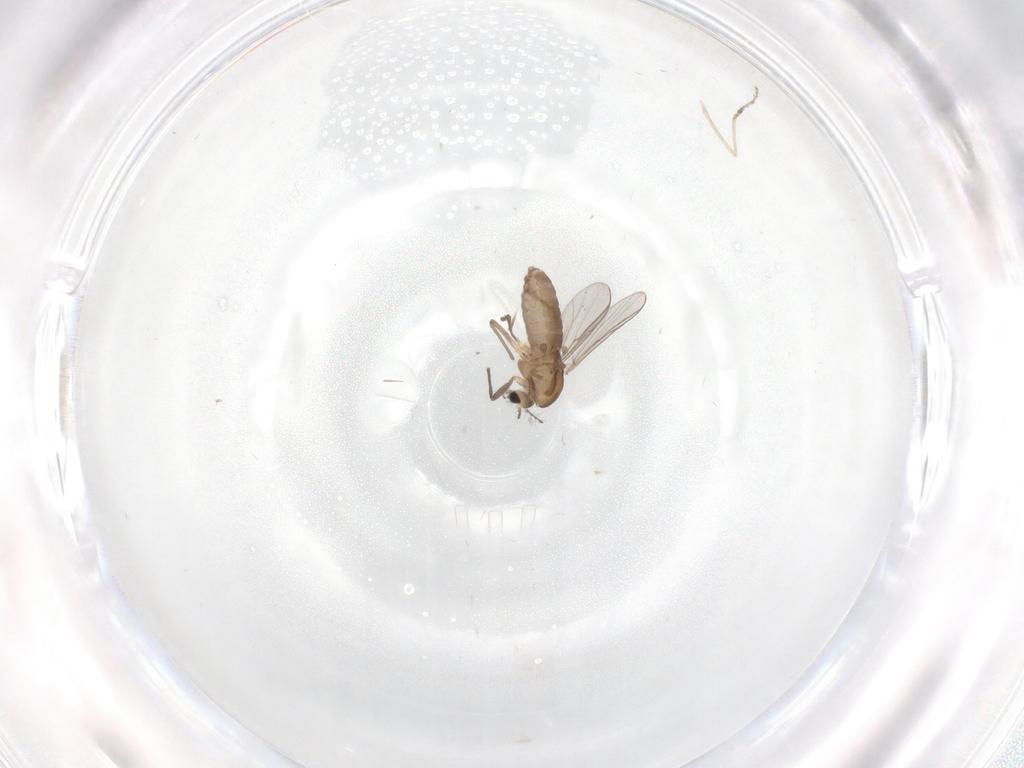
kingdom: Animalia
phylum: Arthropoda
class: Insecta
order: Diptera
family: Chironomidae
